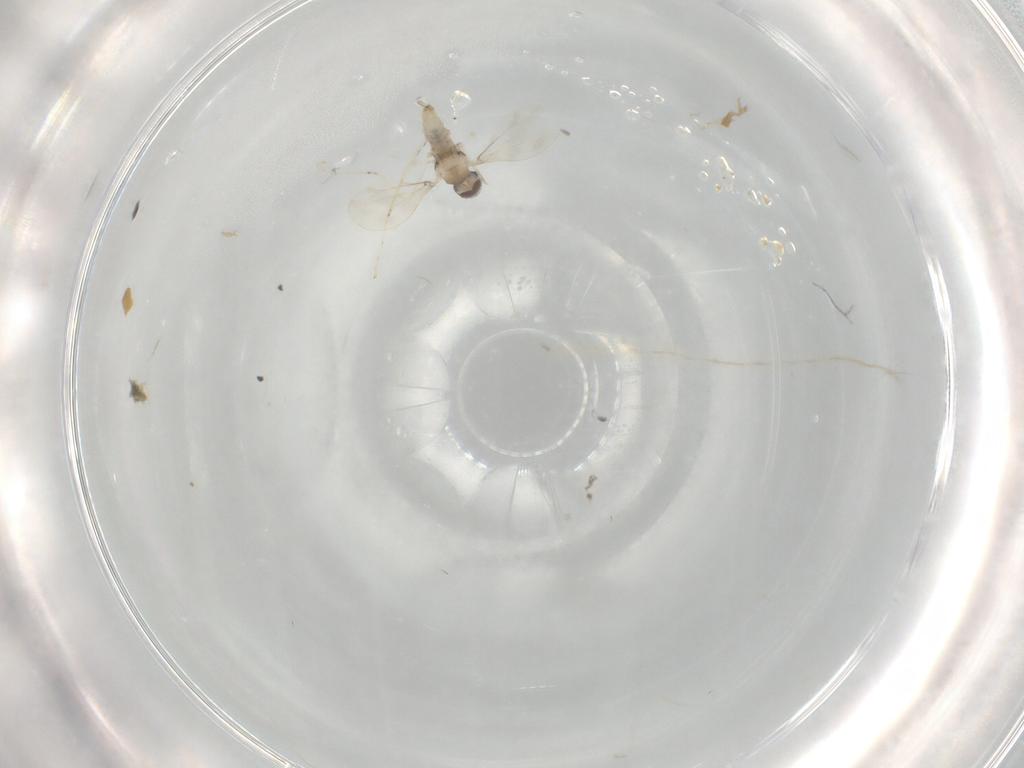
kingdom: Animalia
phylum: Arthropoda
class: Insecta
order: Diptera
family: Cecidomyiidae
